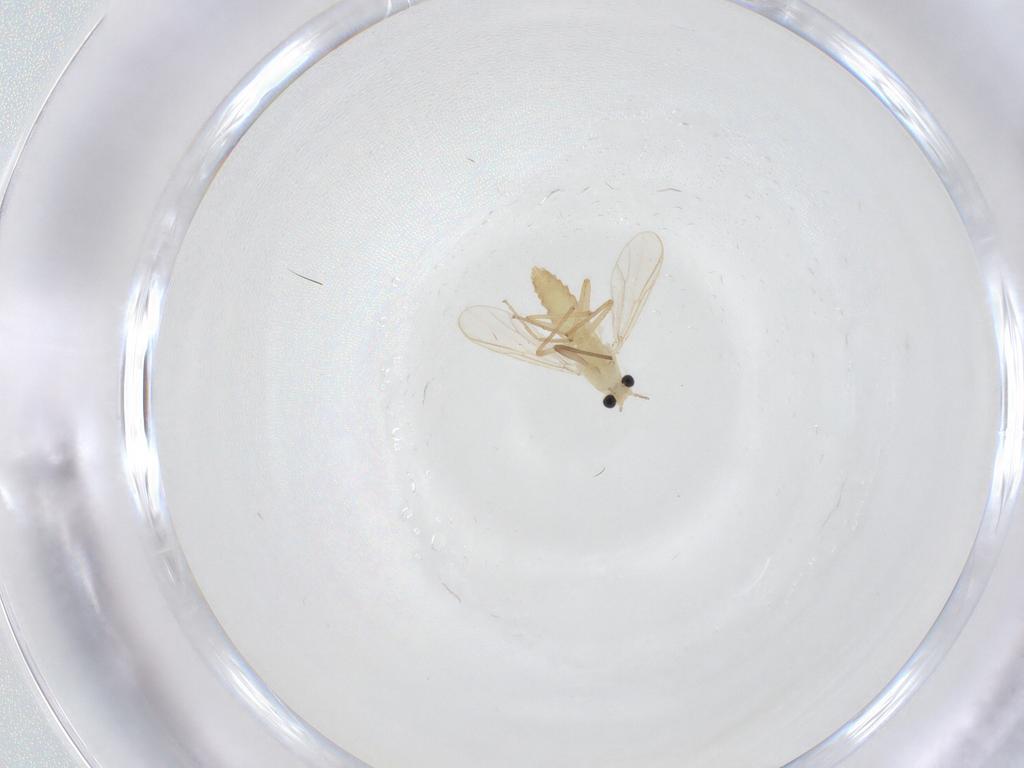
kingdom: Animalia
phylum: Arthropoda
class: Insecta
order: Diptera
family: Chironomidae
